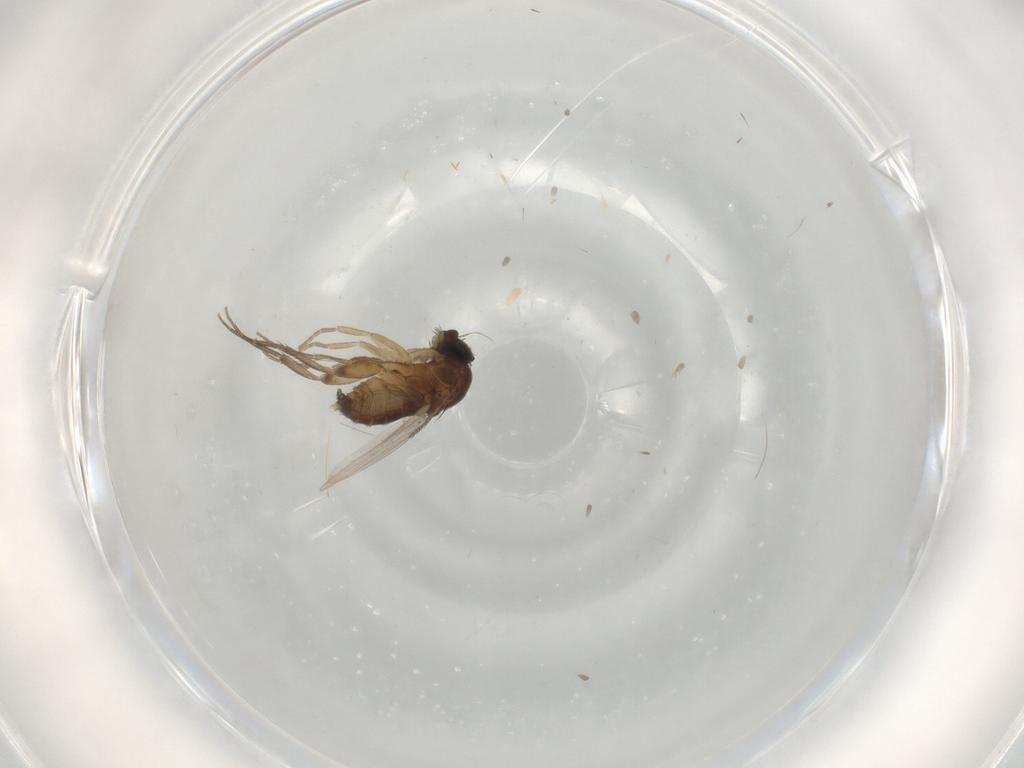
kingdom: Animalia
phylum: Arthropoda
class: Insecta
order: Diptera
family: Phoridae
